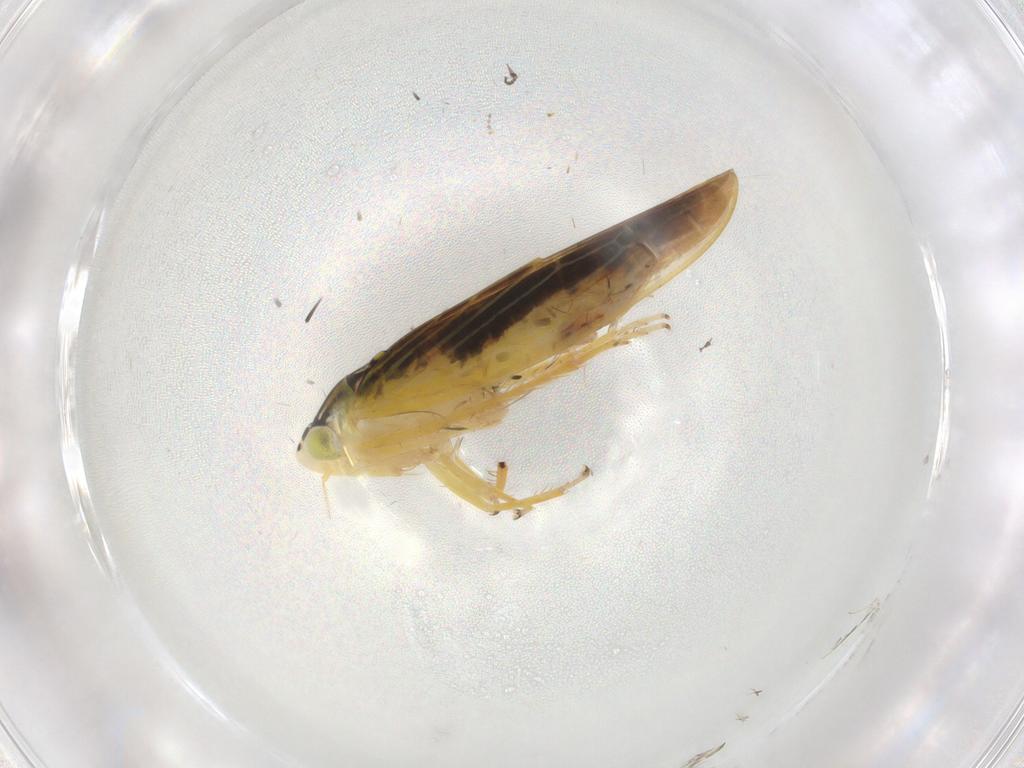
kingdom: Animalia
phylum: Arthropoda
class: Insecta
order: Hemiptera
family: Cicadellidae
